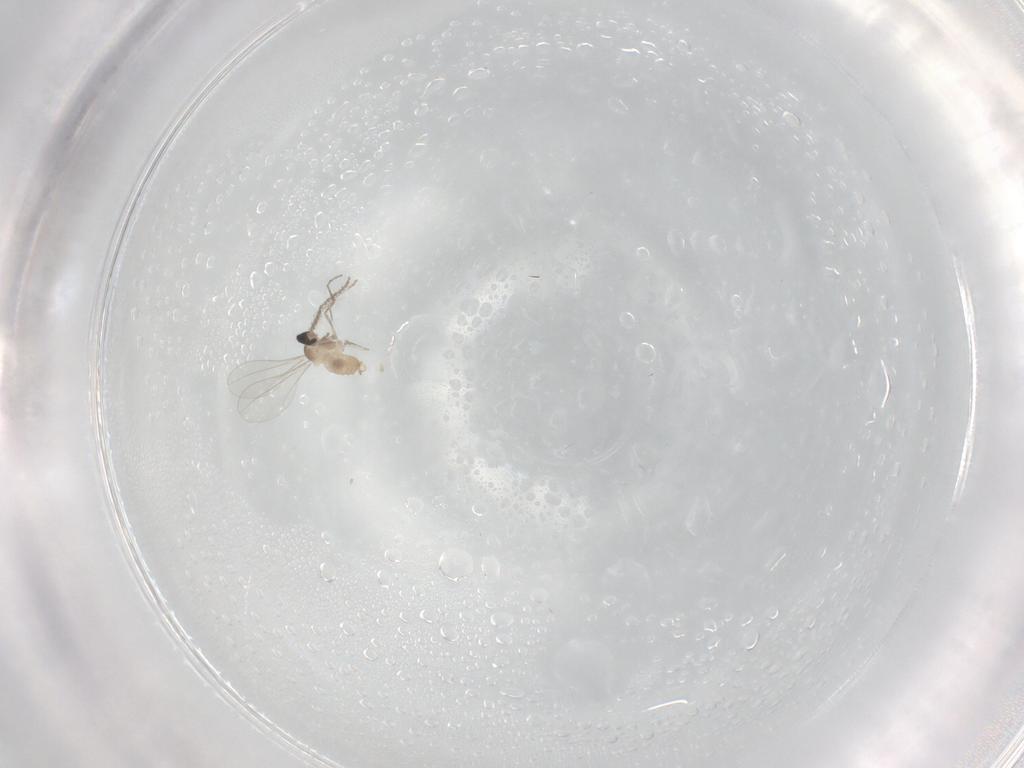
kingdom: Animalia
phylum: Arthropoda
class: Insecta
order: Diptera
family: Cecidomyiidae
